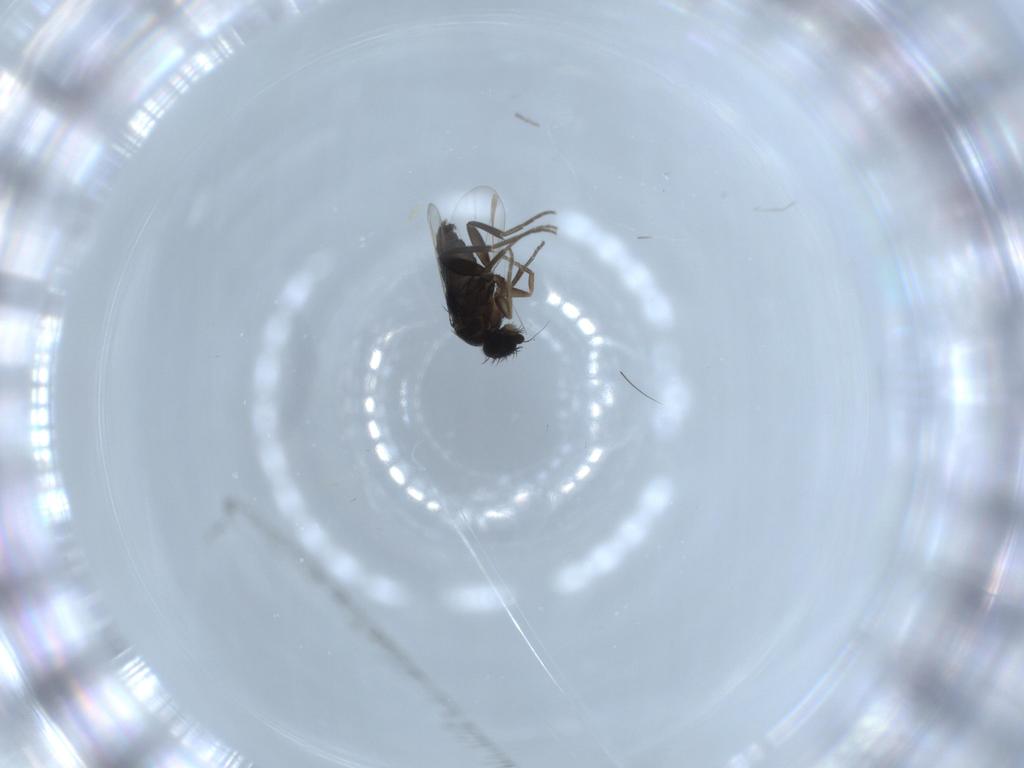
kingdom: Animalia
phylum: Arthropoda
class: Insecta
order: Diptera
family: Phoridae
